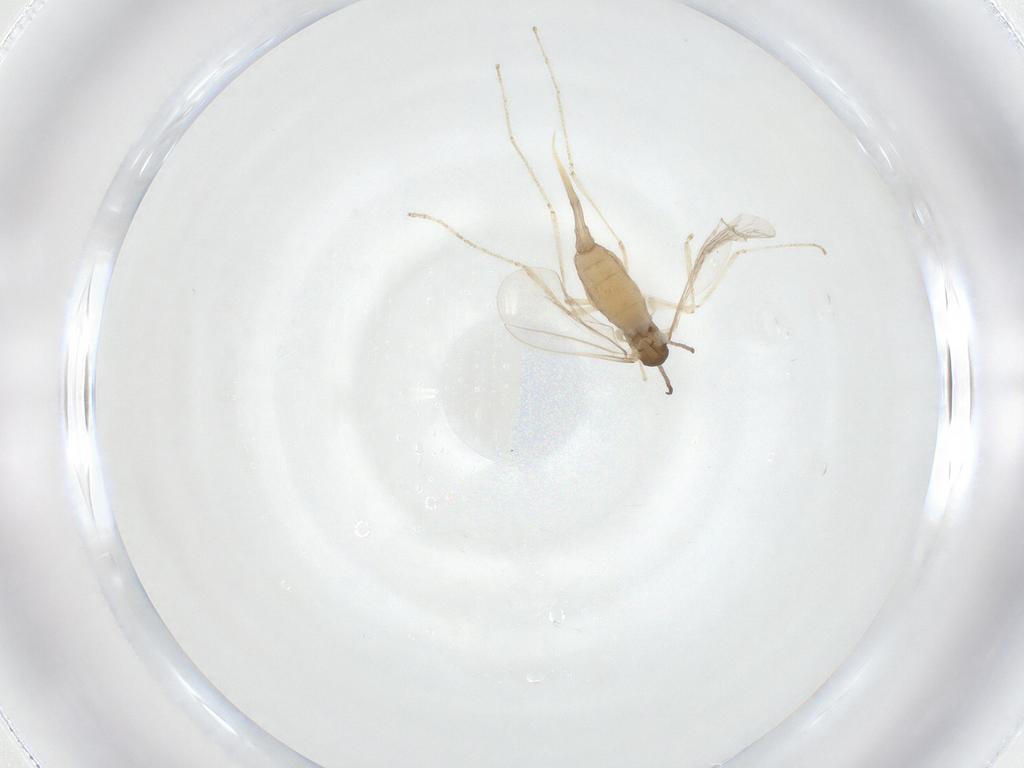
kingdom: Animalia
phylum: Arthropoda
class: Insecta
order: Diptera
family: Cecidomyiidae
